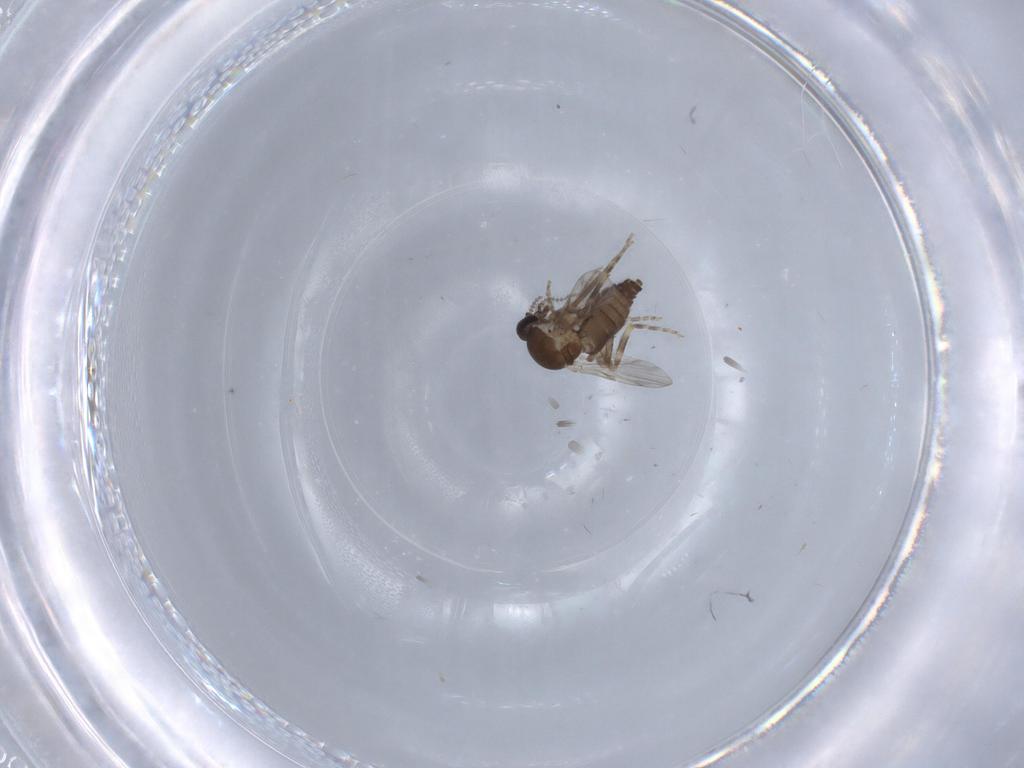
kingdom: Animalia
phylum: Arthropoda
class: Insecta
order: Diptera
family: Ceratopogonidae
